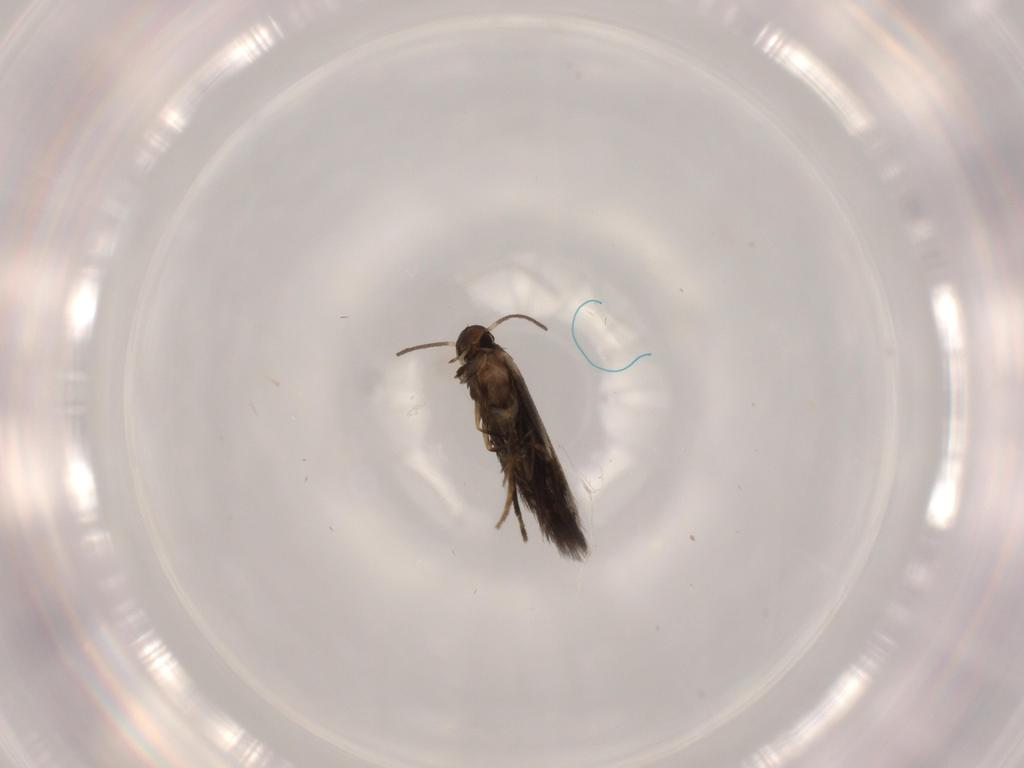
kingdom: Animalia
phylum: Arthropoda
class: Insecta
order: Lepidoptera
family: Heliozelidae
